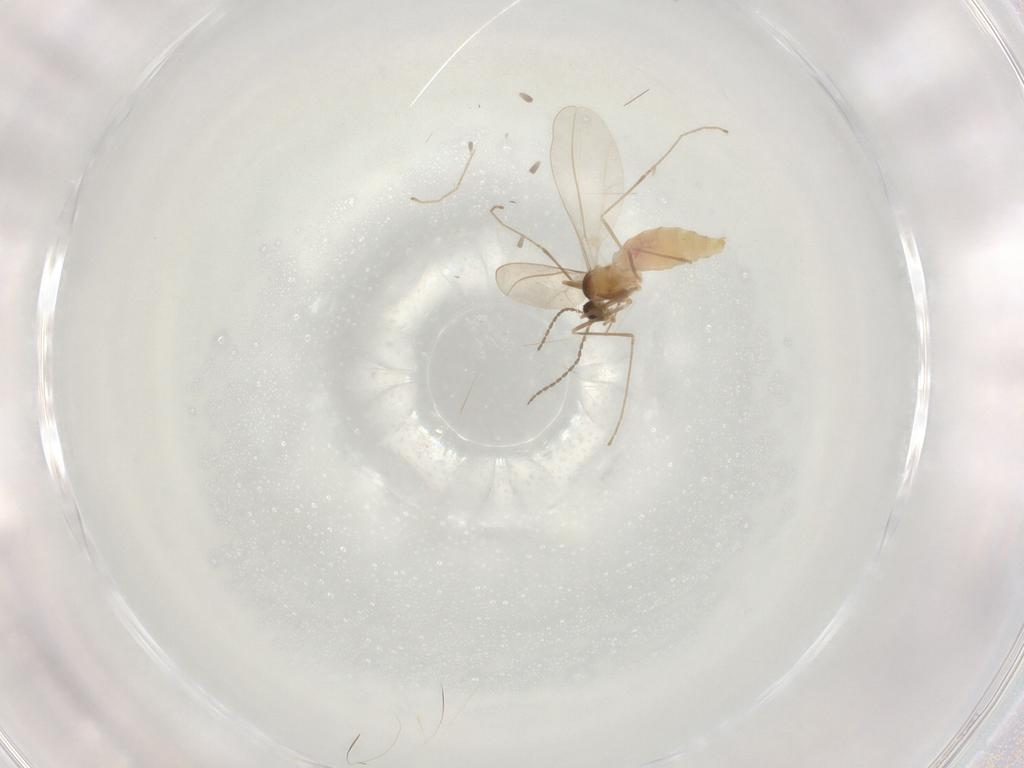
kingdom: Animalia
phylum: Arthropoda
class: Insecta
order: Diptera
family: Cecidomyiidae
